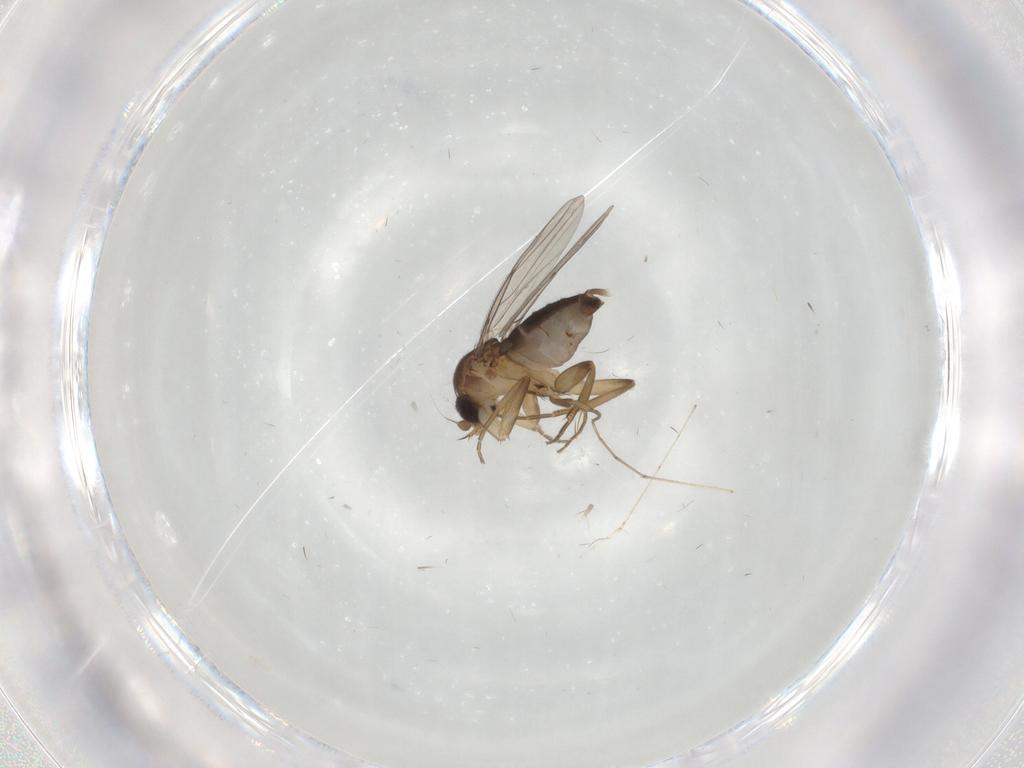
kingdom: Animalia
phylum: Arthropoda
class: Insecta
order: Diptera
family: Phoridae
